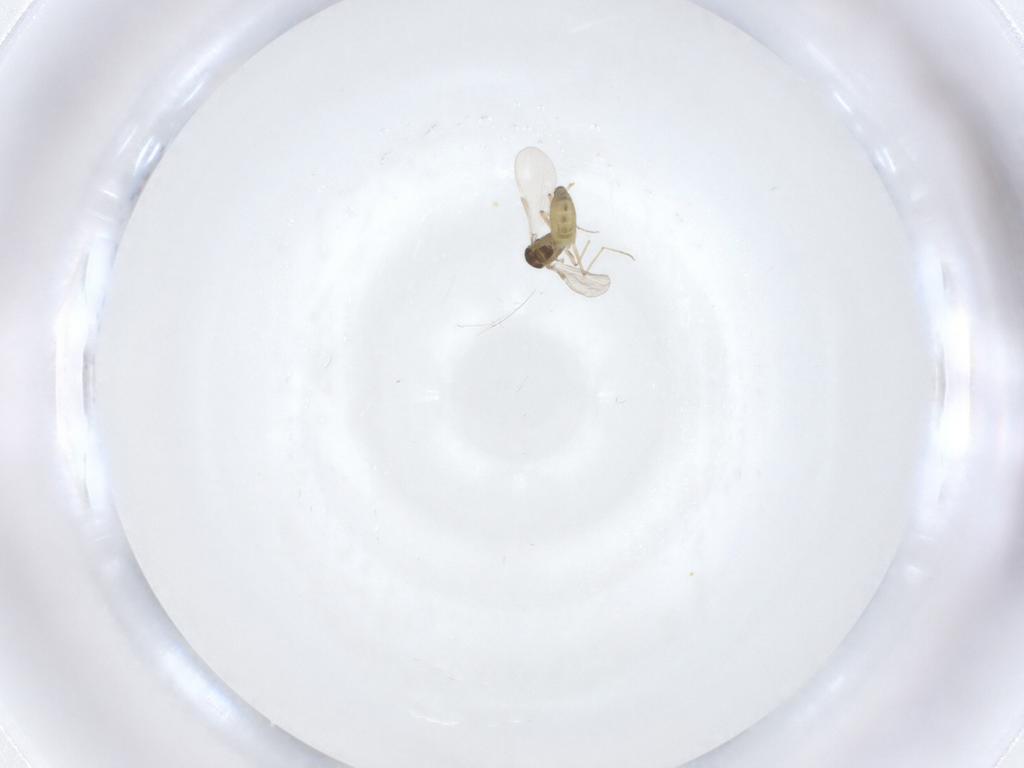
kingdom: Animalia
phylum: Arthropoda
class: Insecta
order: Diptera
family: Chironomidae
